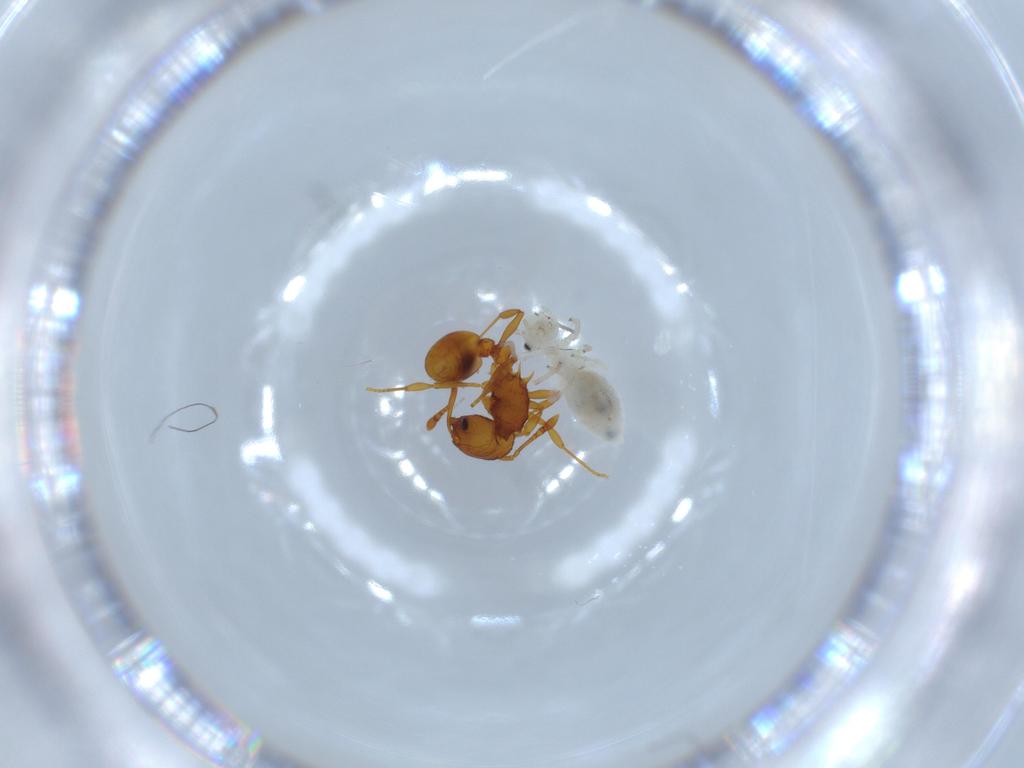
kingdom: Animalia
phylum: Arthropoda
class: Insecta
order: Psocodea
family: Caeciliusidae
